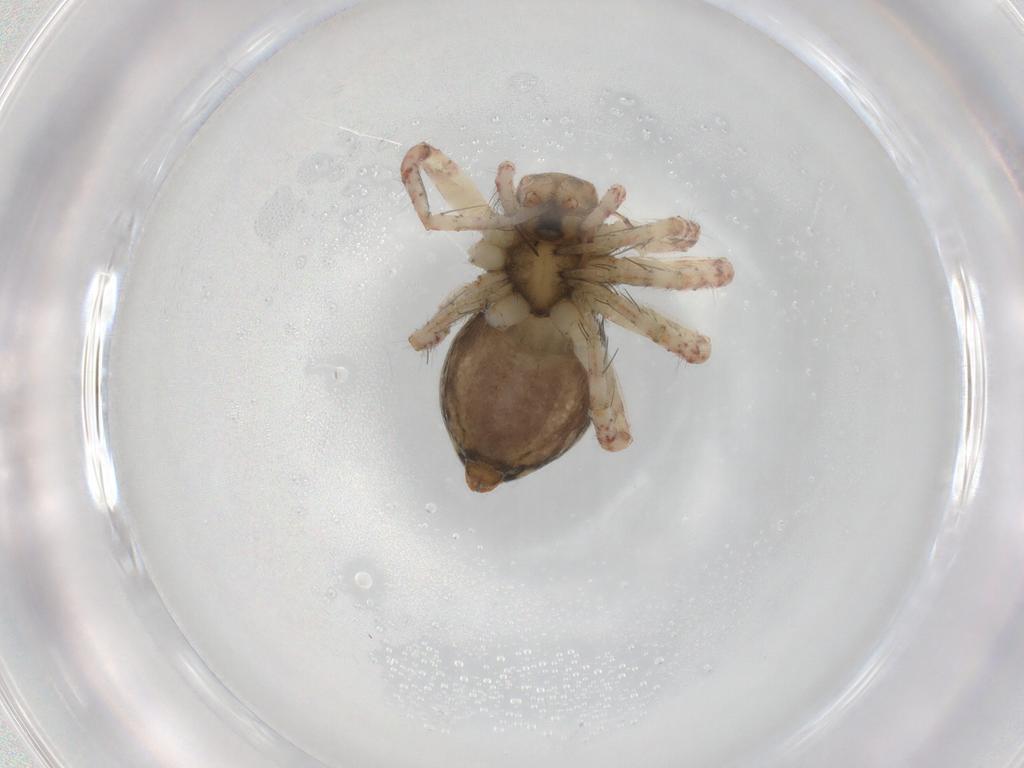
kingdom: Animalia
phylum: Arthropoda
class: Arachnida
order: Araneae
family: Pisauridae
